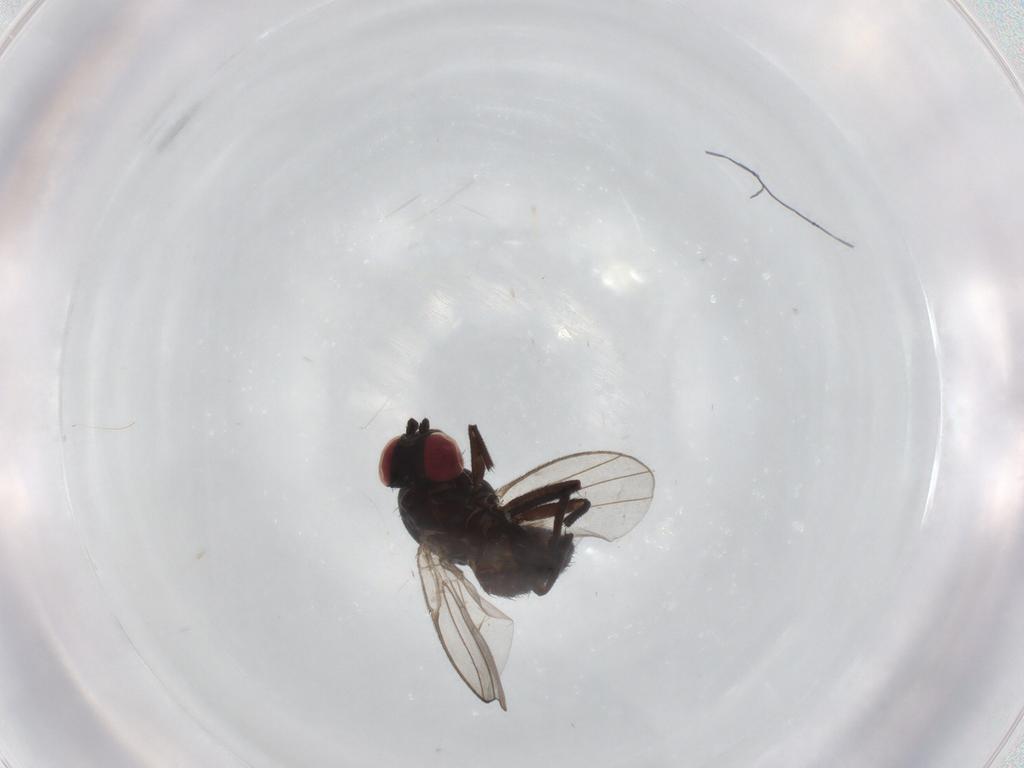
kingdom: Animalia
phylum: Arthropoda
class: Insecta
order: Diptera
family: Agromyzidae
